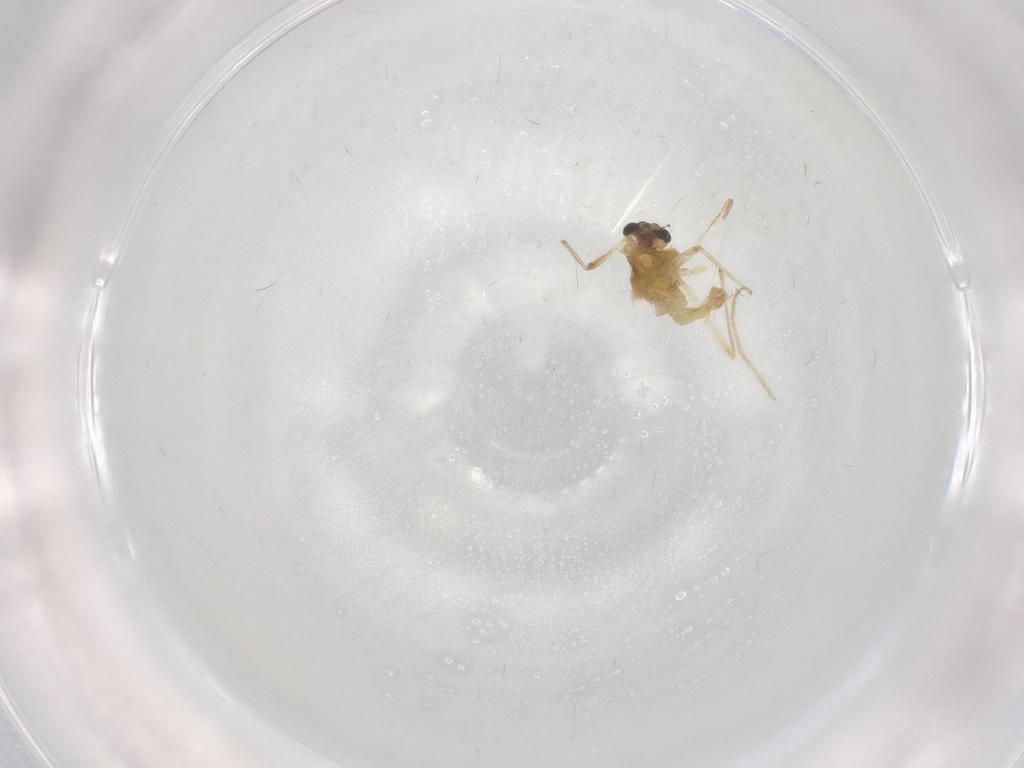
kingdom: Animalia
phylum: Arthropoda
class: Insecta
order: Diptera
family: Chironomidae
